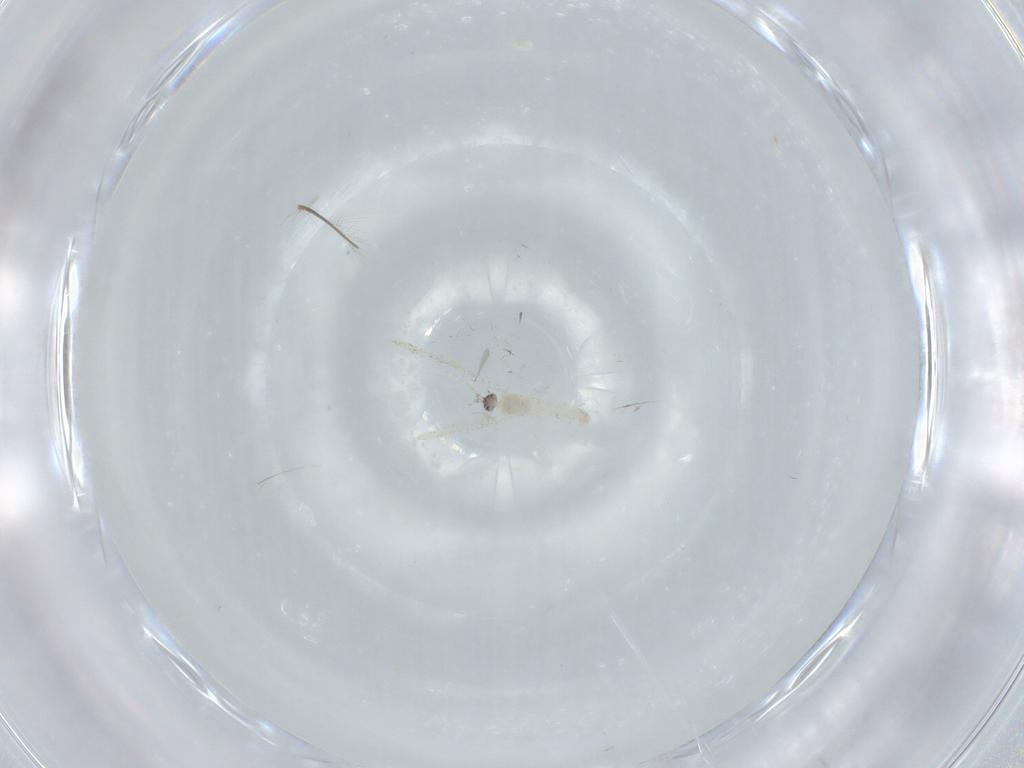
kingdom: Animalia
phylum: Arthropoda
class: Insecta
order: Diptera
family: Cecidomyiidae
